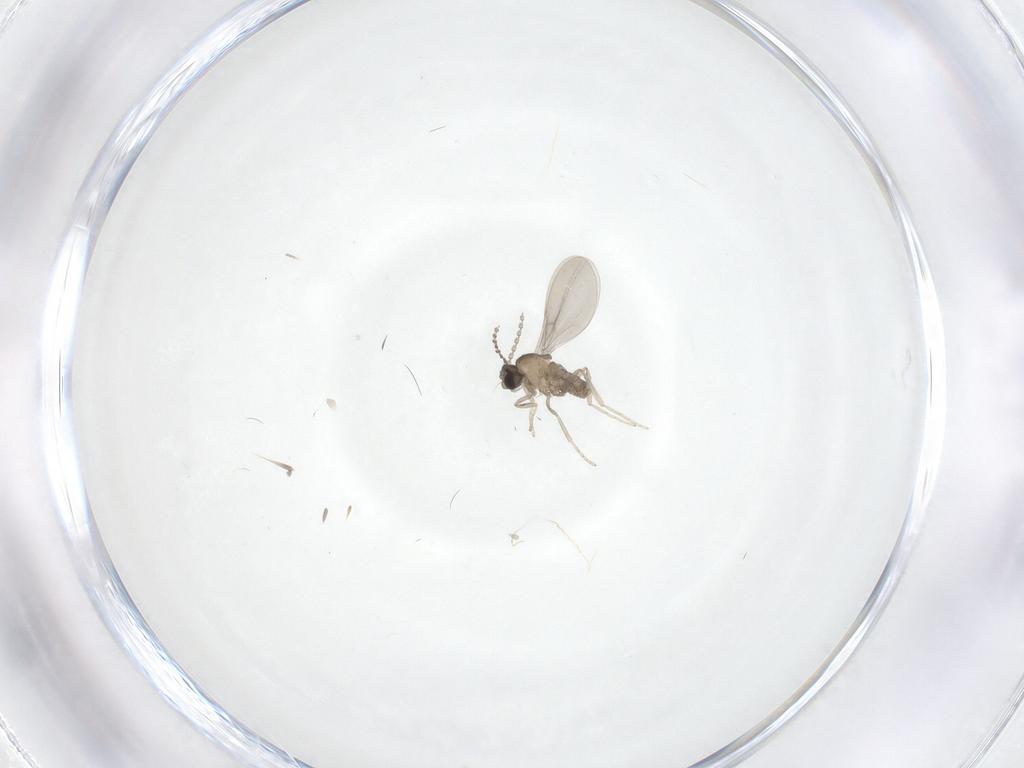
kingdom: Animalia
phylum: Arthropoda
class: Insecta
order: Diptera
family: Cecidomyiidae
